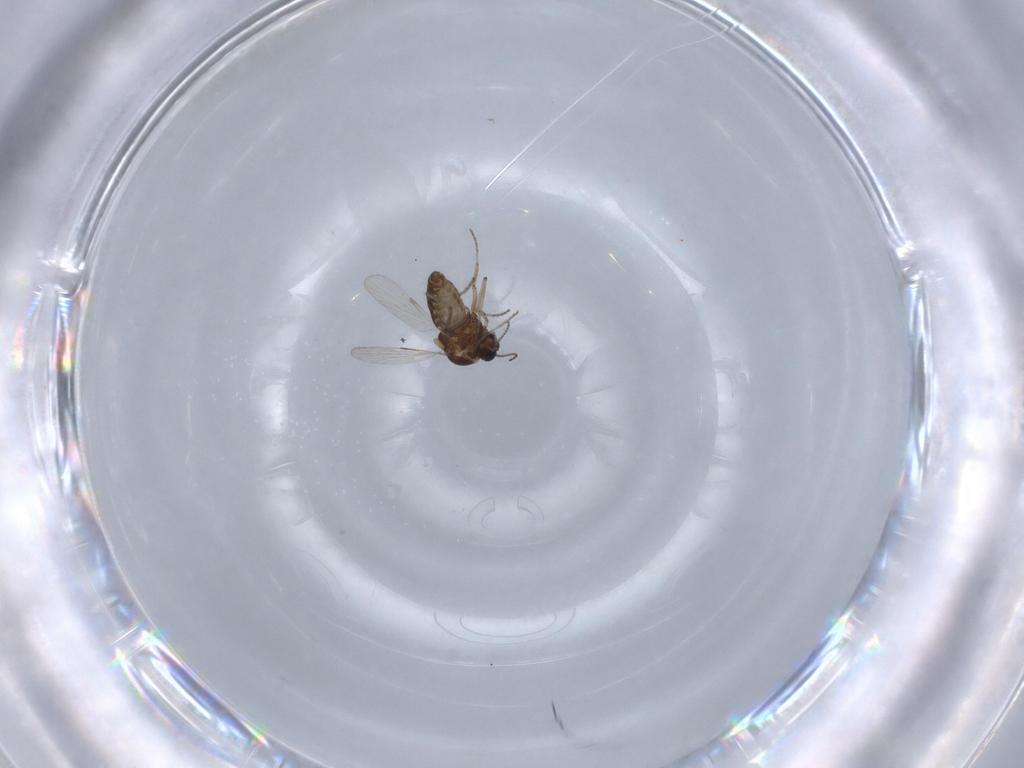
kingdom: Animalia
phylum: Arthropoda
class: Insecta
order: Diptera
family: Ceratopogonidae
